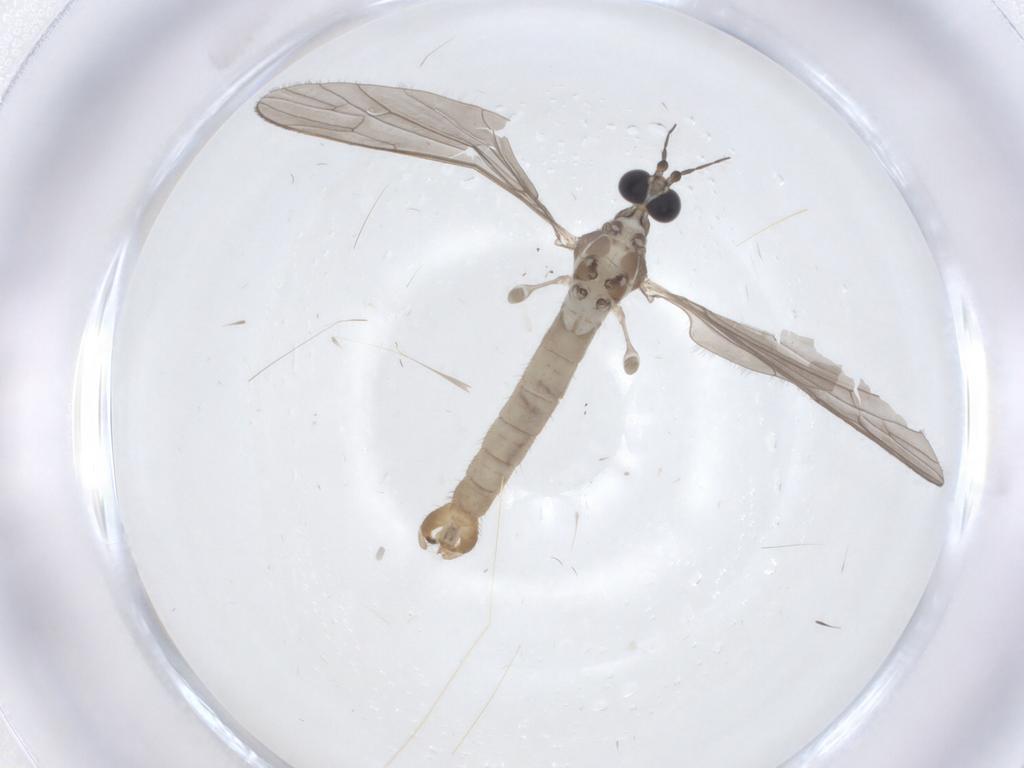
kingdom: Animalia
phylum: Arthropoda
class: Insecta
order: Diptera
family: Limoniidae
